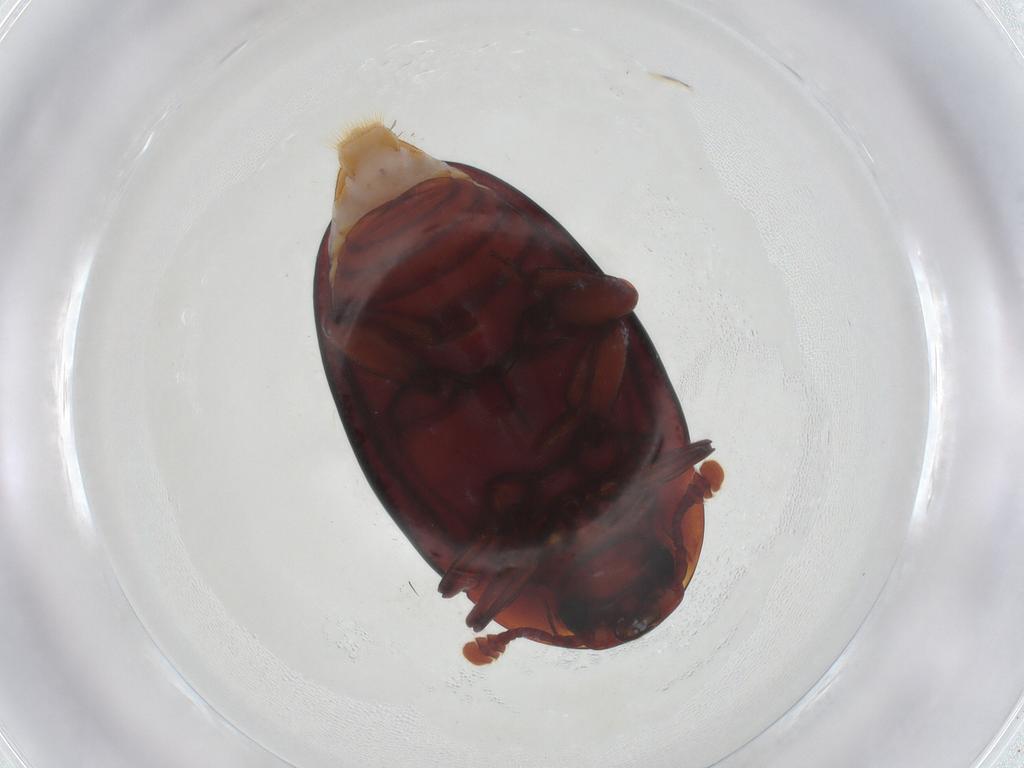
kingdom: Animalia
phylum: Arthropoda
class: Insecta
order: Coleoptera
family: Zopheridae
